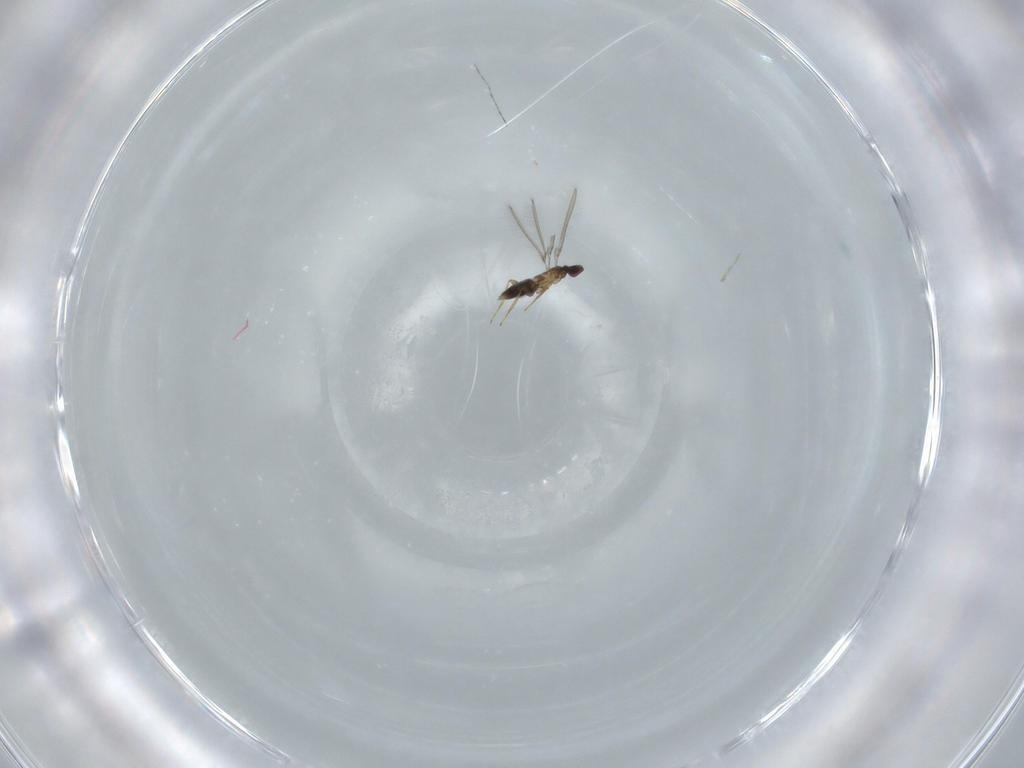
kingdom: Animalia
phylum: Arthropoda
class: Insecta
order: Hymenoptera
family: Mymaridae
